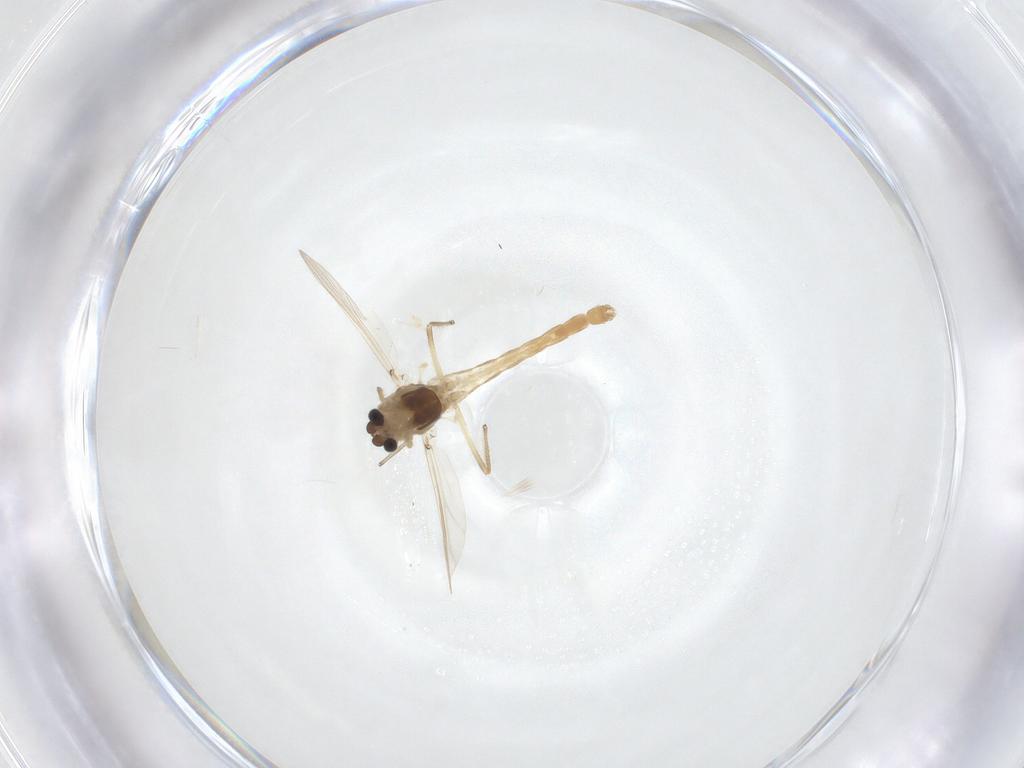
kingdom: Animalia
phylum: Arthropoda
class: Insecta
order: Diptera
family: Chironomidae
